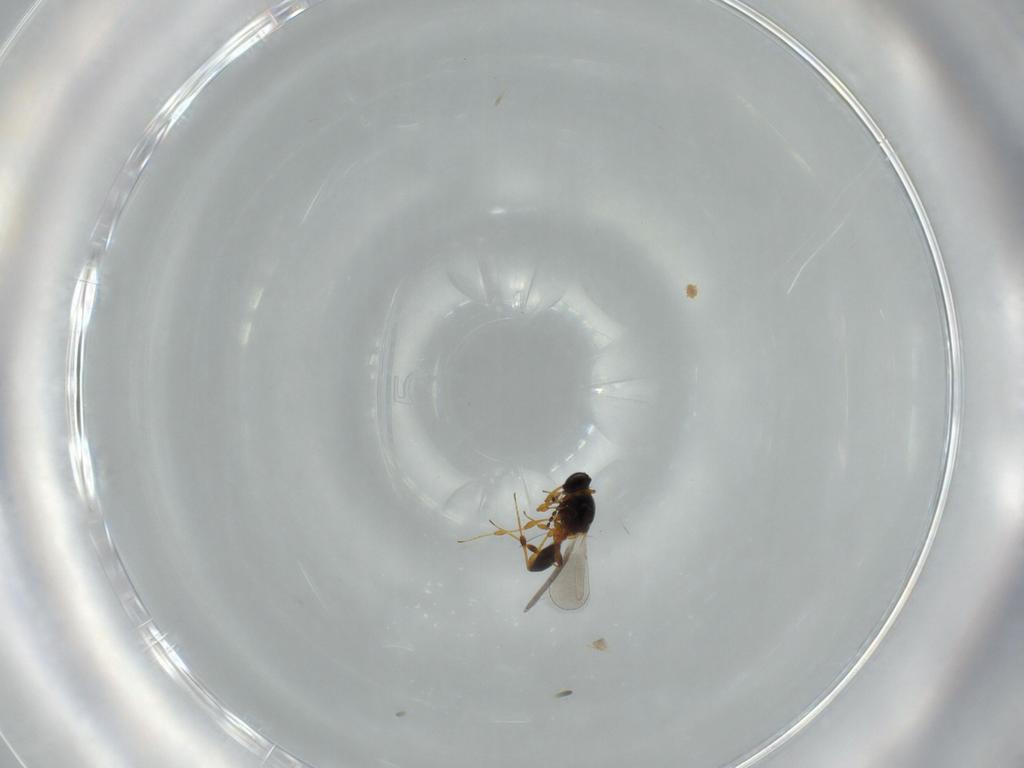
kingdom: Animalia
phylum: Arthropoda
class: Insecta
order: Hymenoptera
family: Platygastridae
